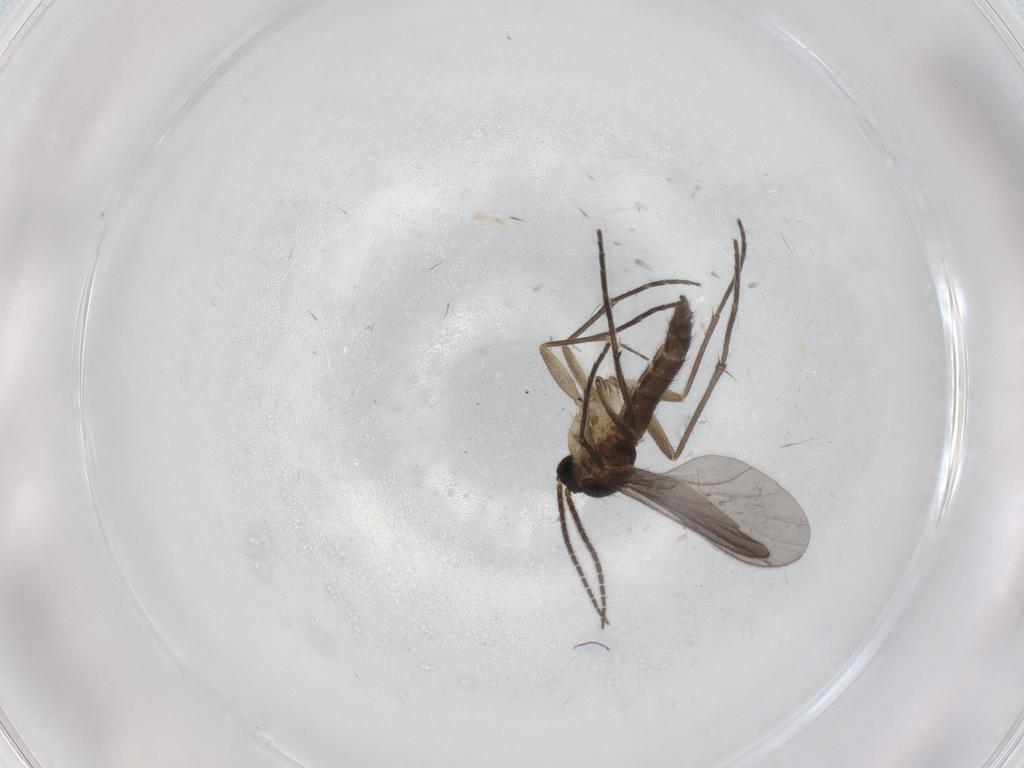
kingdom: Animalia
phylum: Arthropoda
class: Insecta
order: Diptera
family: Sciaridae
